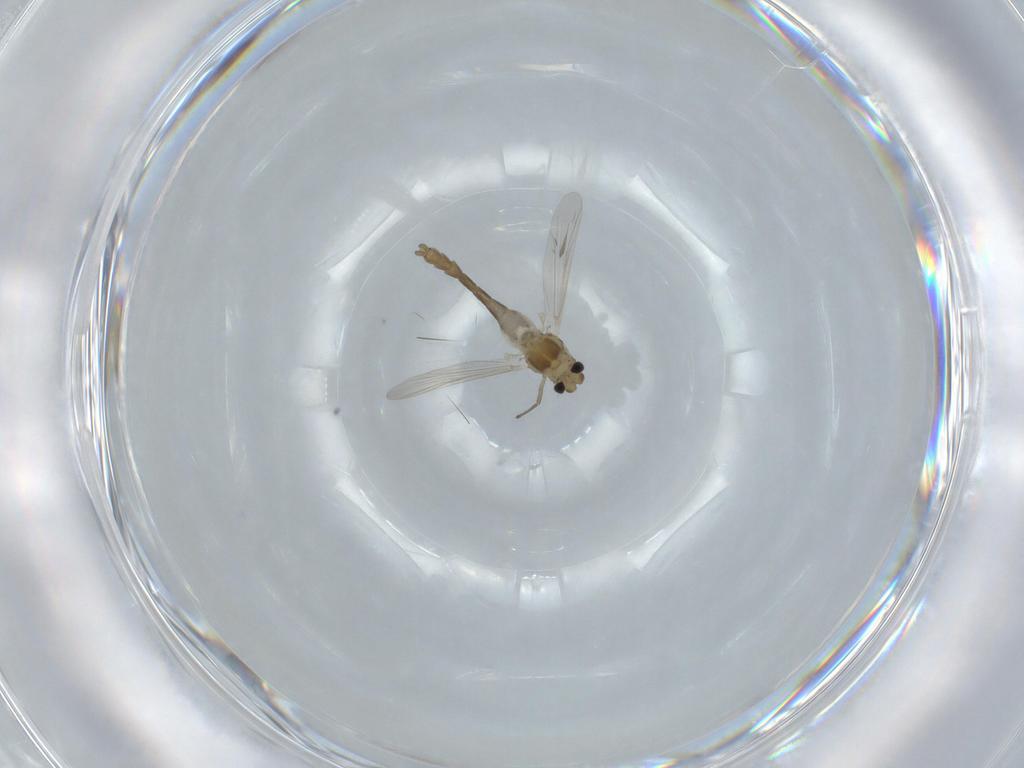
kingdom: Animalia
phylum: Arthropoda
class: Insecta
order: Diptera
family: Chironomidae
